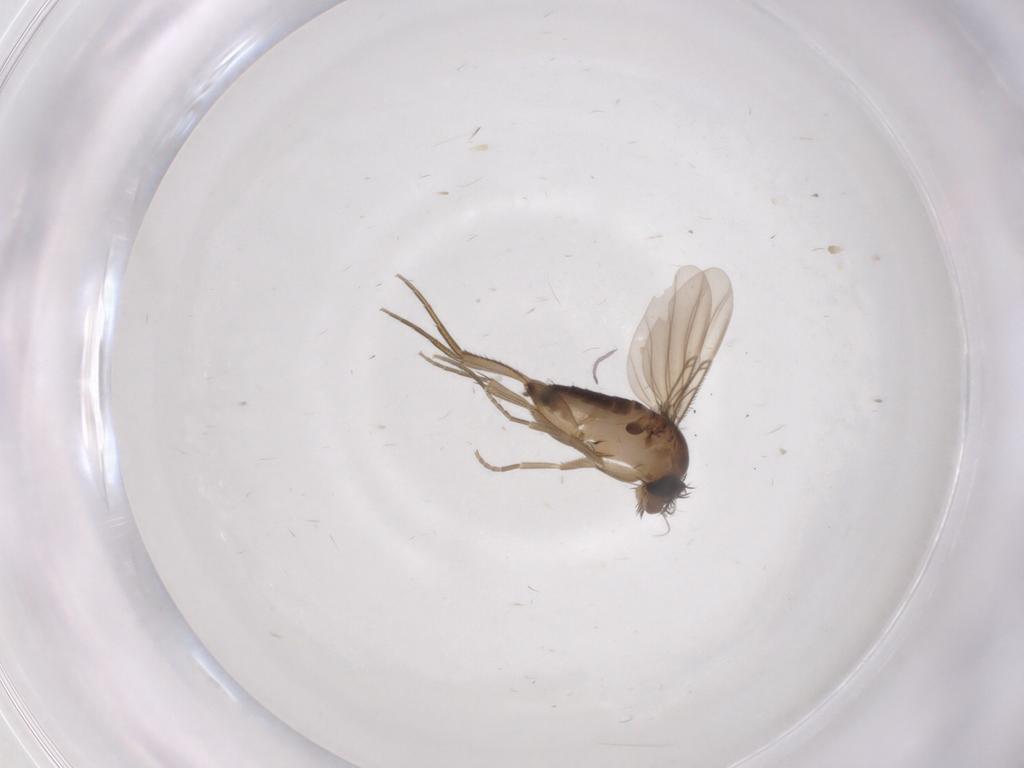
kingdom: Animalia
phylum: Arthropoda
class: Insecta
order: Diptera
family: Phoridae
